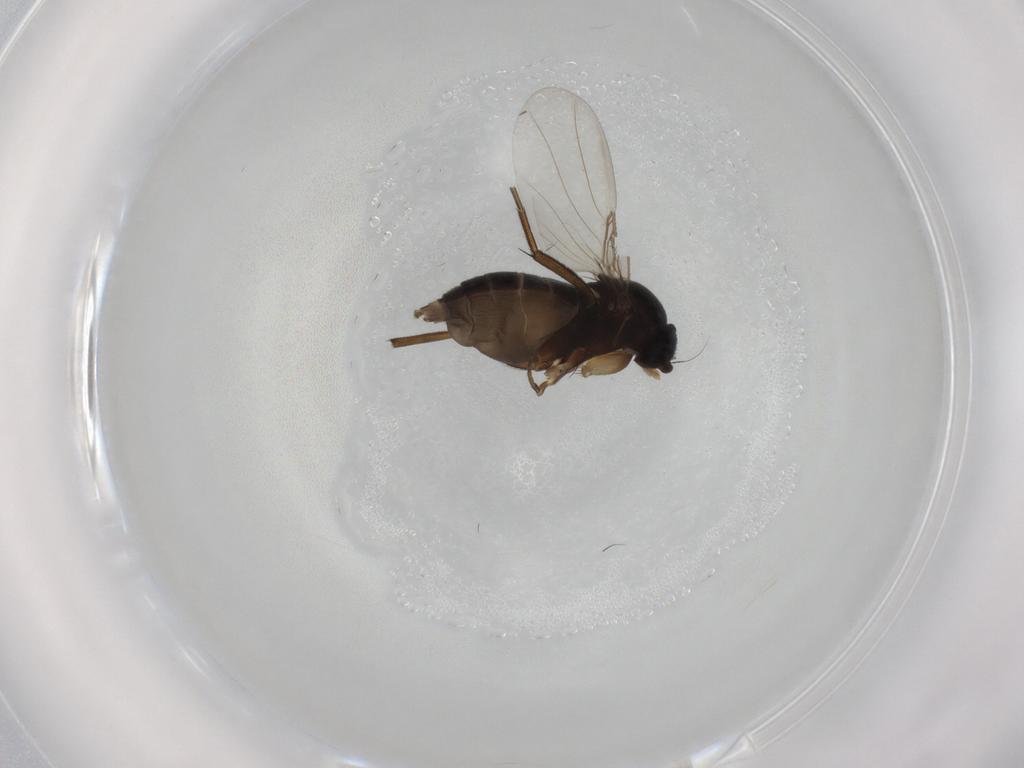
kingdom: Animalia
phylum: Arthropoda
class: Insecta
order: Diptera
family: Phoridae
